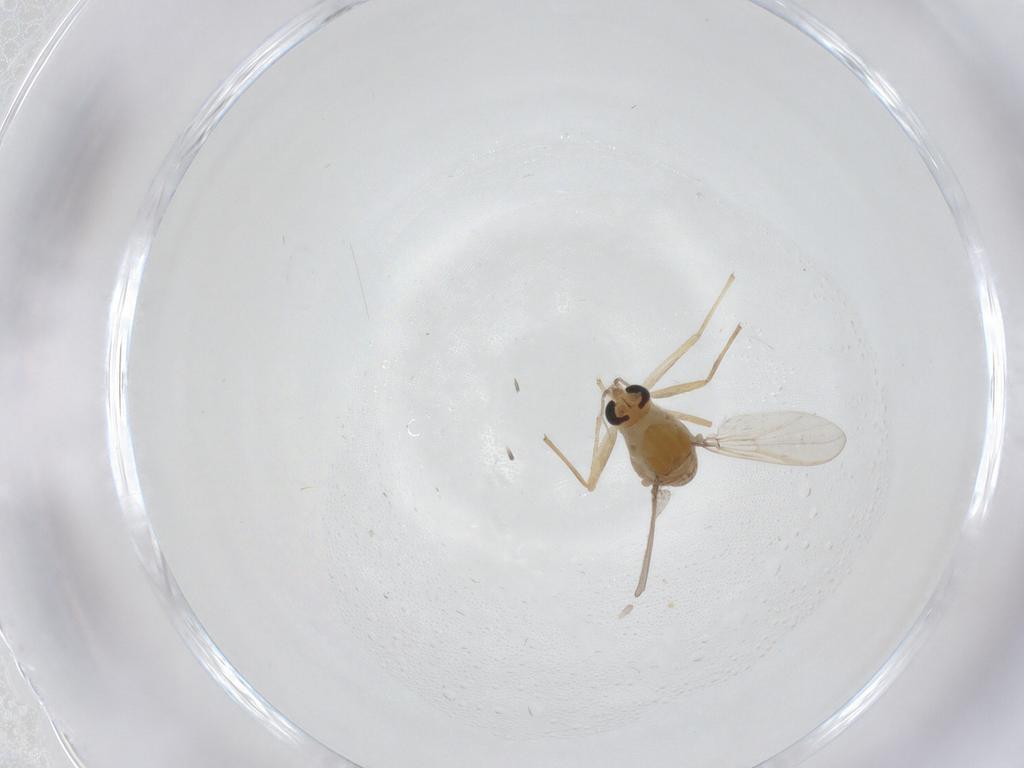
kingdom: Animalia
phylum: Arthropoda
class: Insecta
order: Diptera
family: Chironomidae
